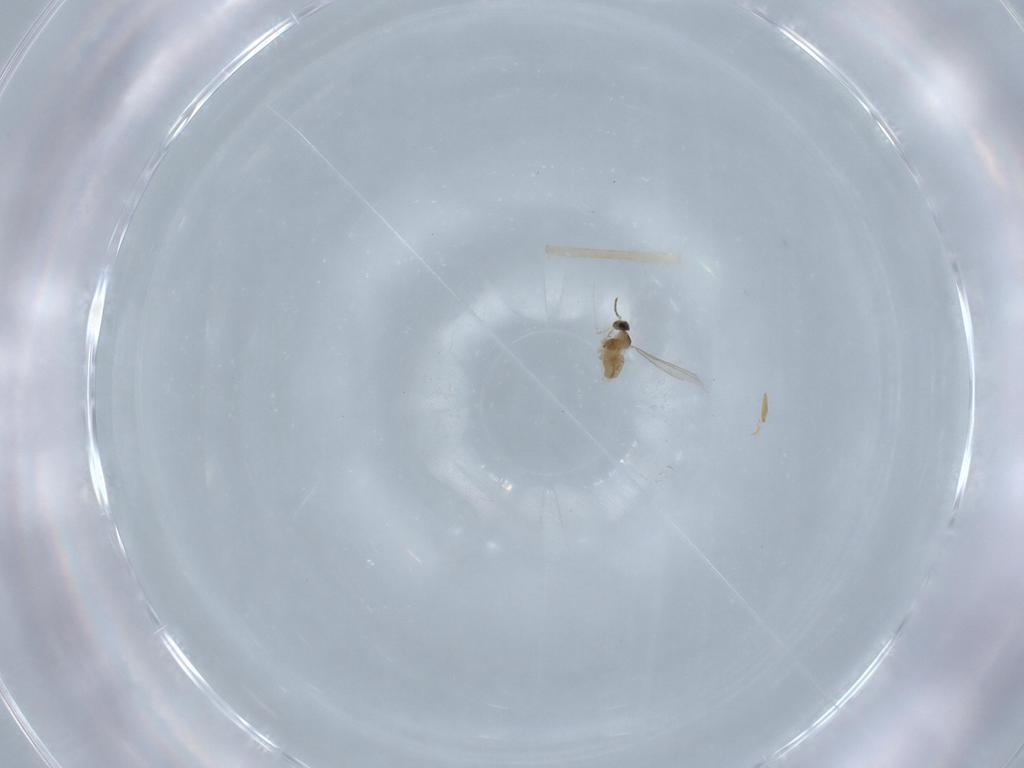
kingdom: Animalia
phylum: Arthropoda
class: Insecta
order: Diptera
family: Cecidomyiidae
